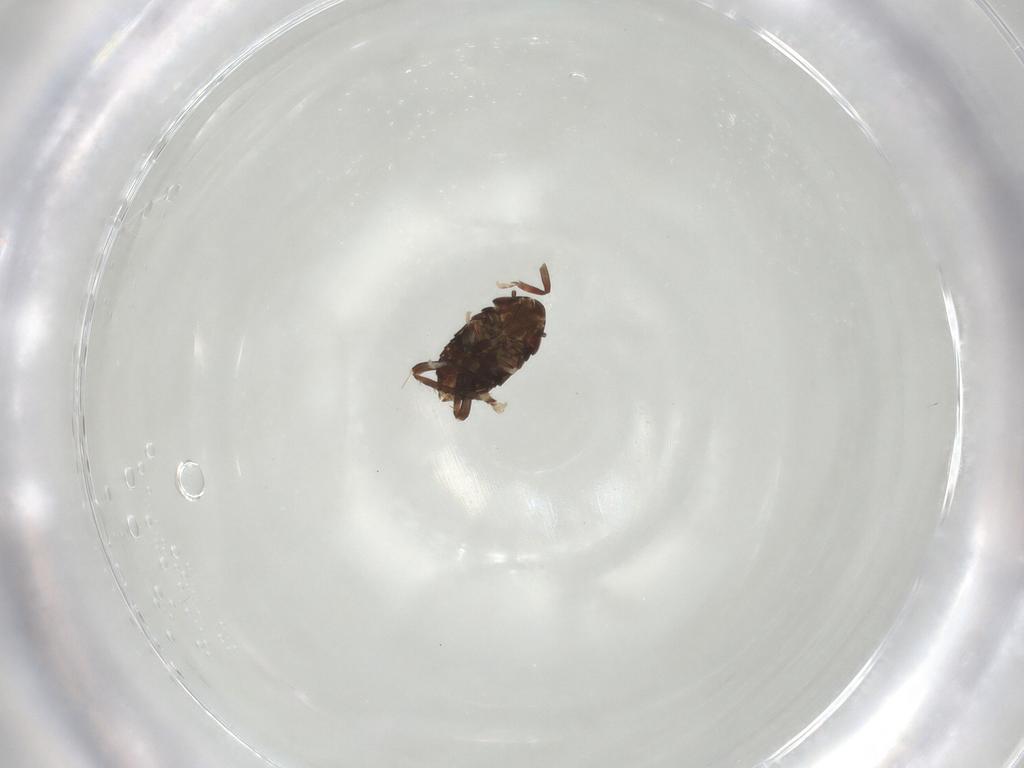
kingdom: Animalia
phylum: Arthropoda
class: Insecta
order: Hemiptera
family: Cicadellidae
